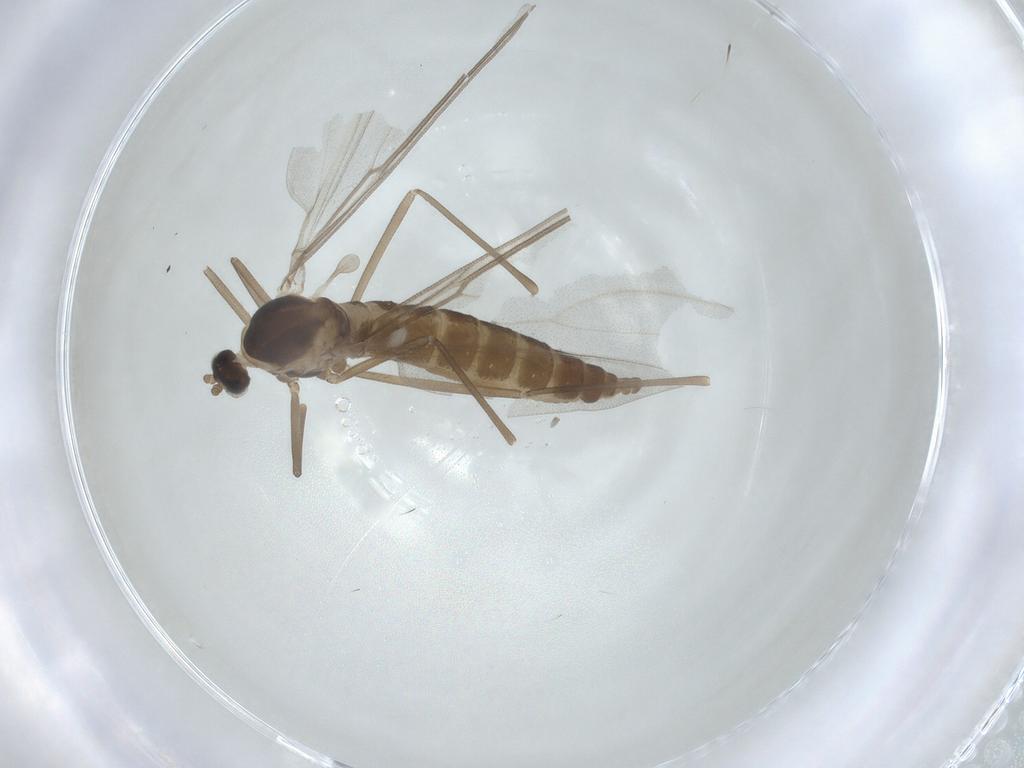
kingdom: Animalia
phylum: Arthropoda
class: Insecta
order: Diptera
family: Cecidomyiidae
